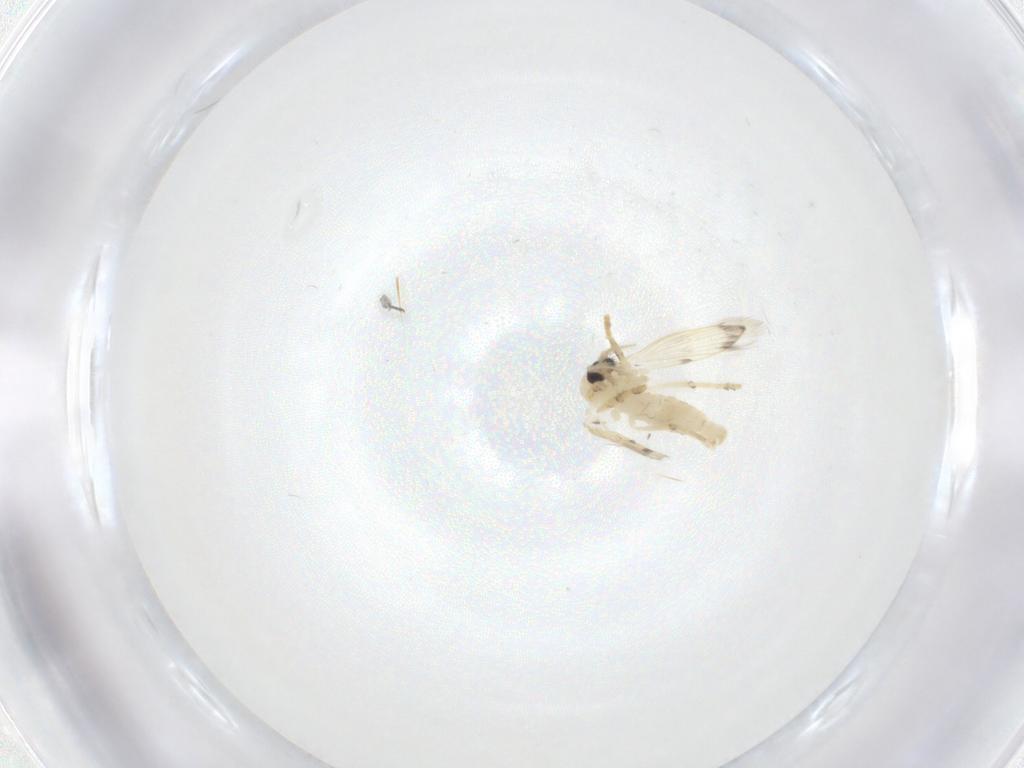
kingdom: Animalia
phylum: Arthropoda
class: Insecta
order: Diptera
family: Psychodidae
